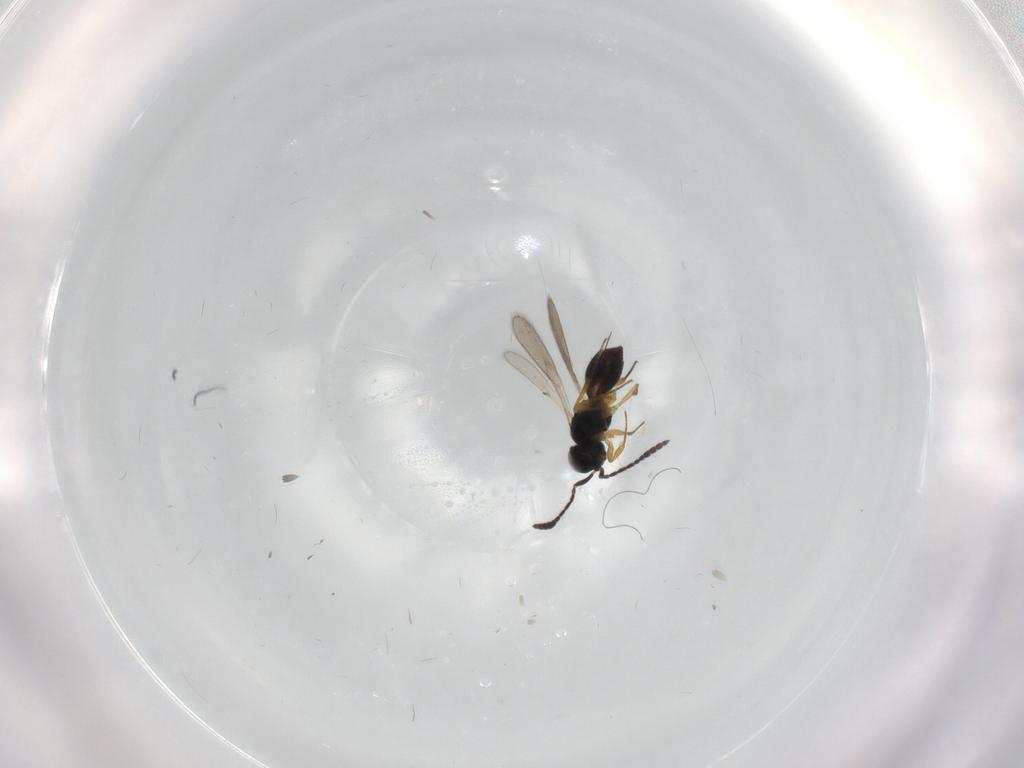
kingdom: Animalia
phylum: Arthropoda
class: Insecta
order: Hymenoptera
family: Scelionidae
